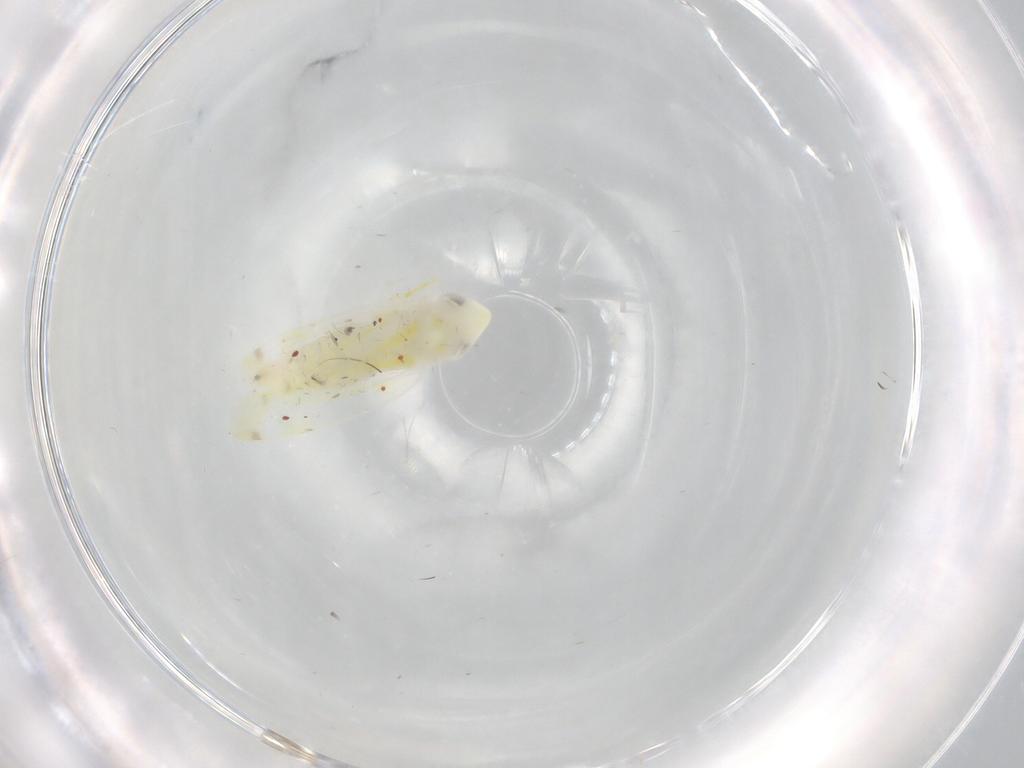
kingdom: Animalia
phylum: Arthropoda
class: Insecta
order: Hemiptera
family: Cicadellidae
